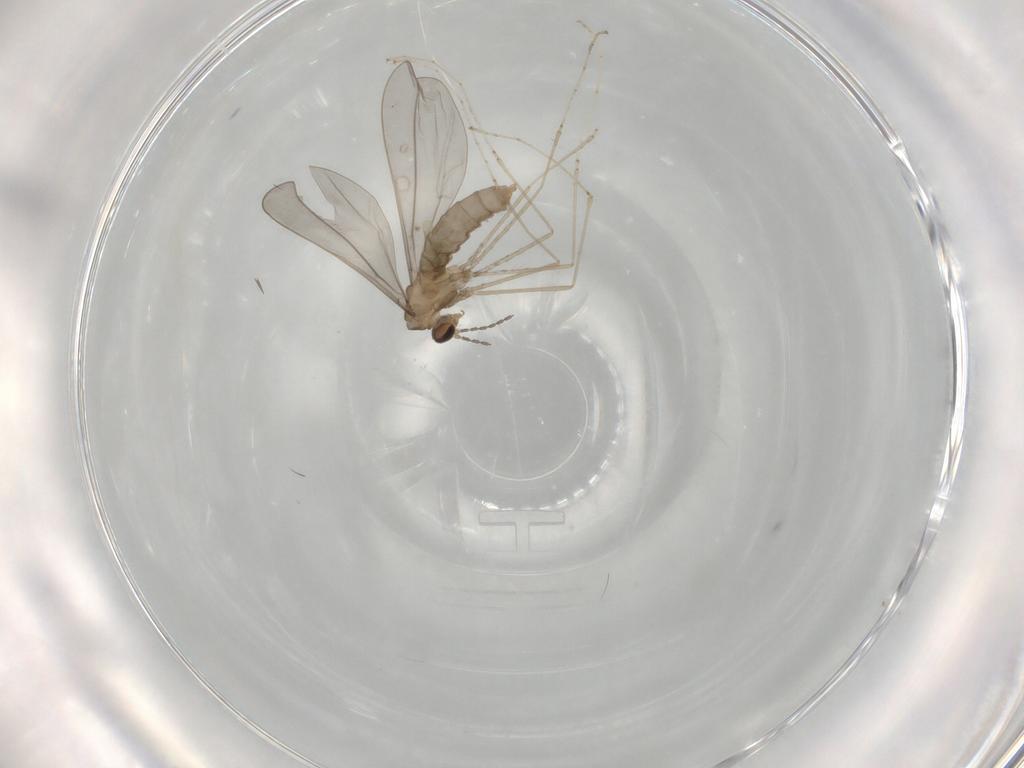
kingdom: Animalia
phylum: Arthropoda
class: Insecta
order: Diptera
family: Cecidomyiidae
